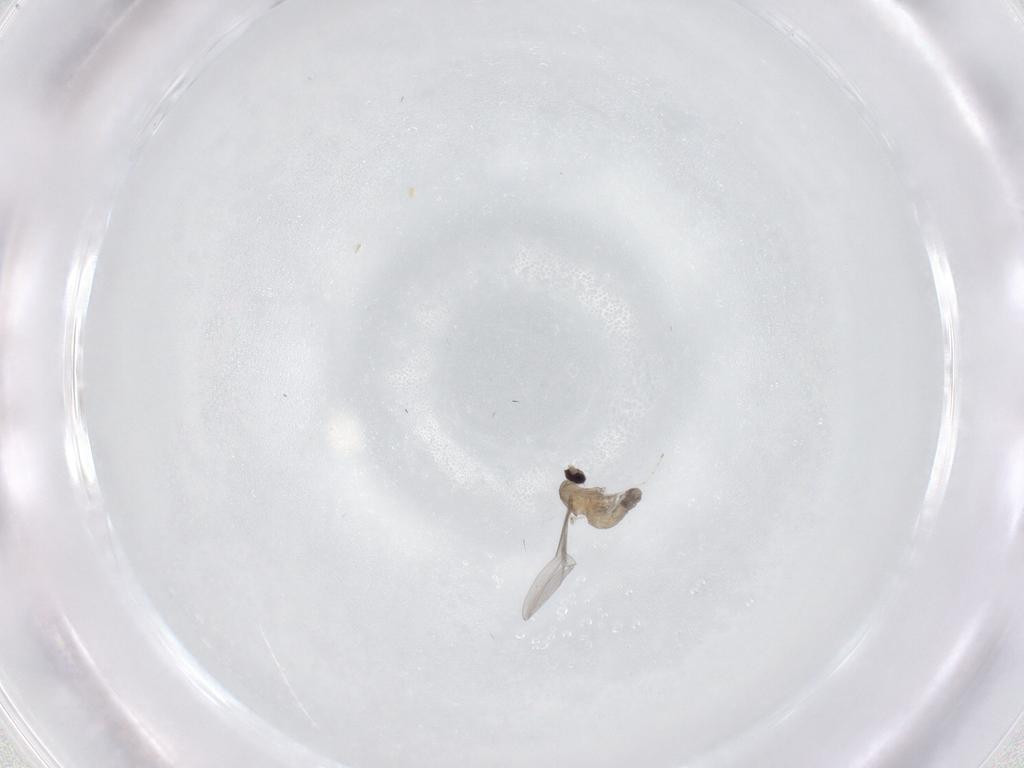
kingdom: Animalia
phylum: Arthropoda
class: Insecta
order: Diptera
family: Cecidomyiidae
